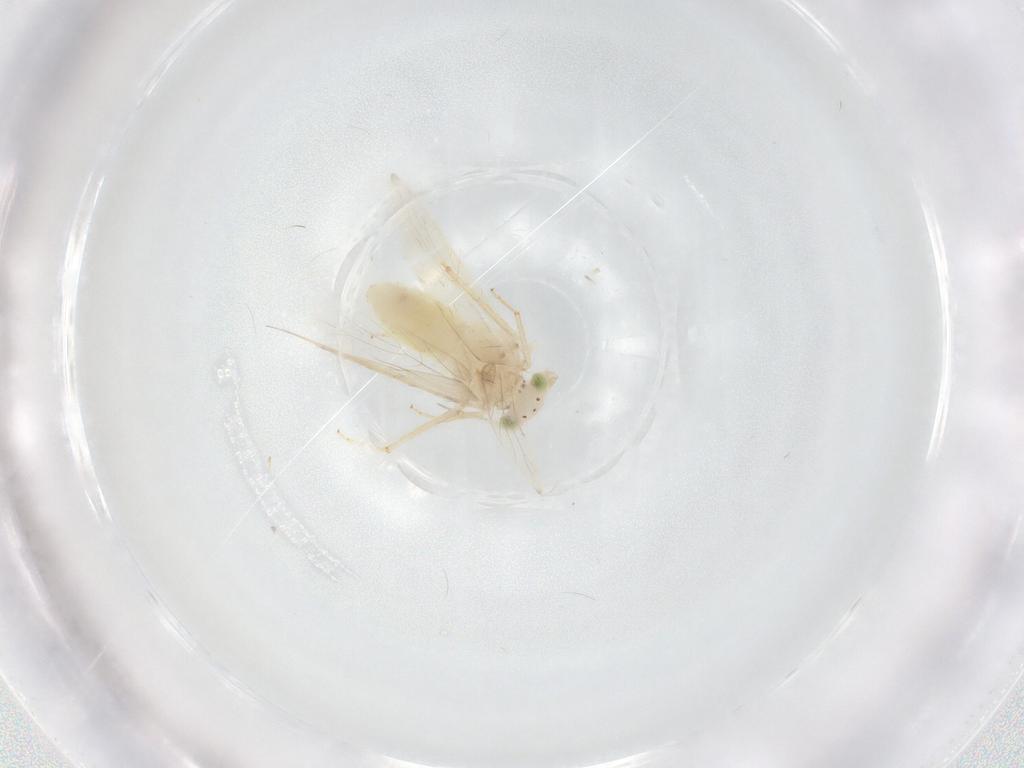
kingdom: Animalia
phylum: Arthropoda
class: Insecta
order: Psocodea
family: Lepidopsocidae
